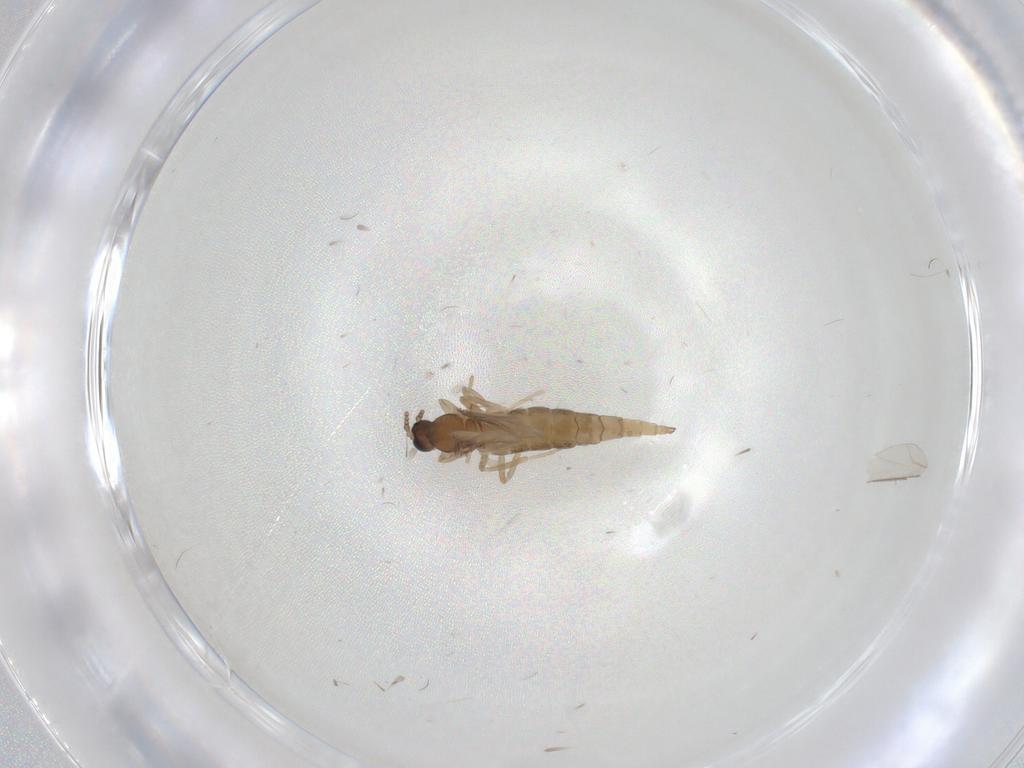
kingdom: Animalia
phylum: Arthropoda
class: Insecta
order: Diptera
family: Cecidomyiidae
